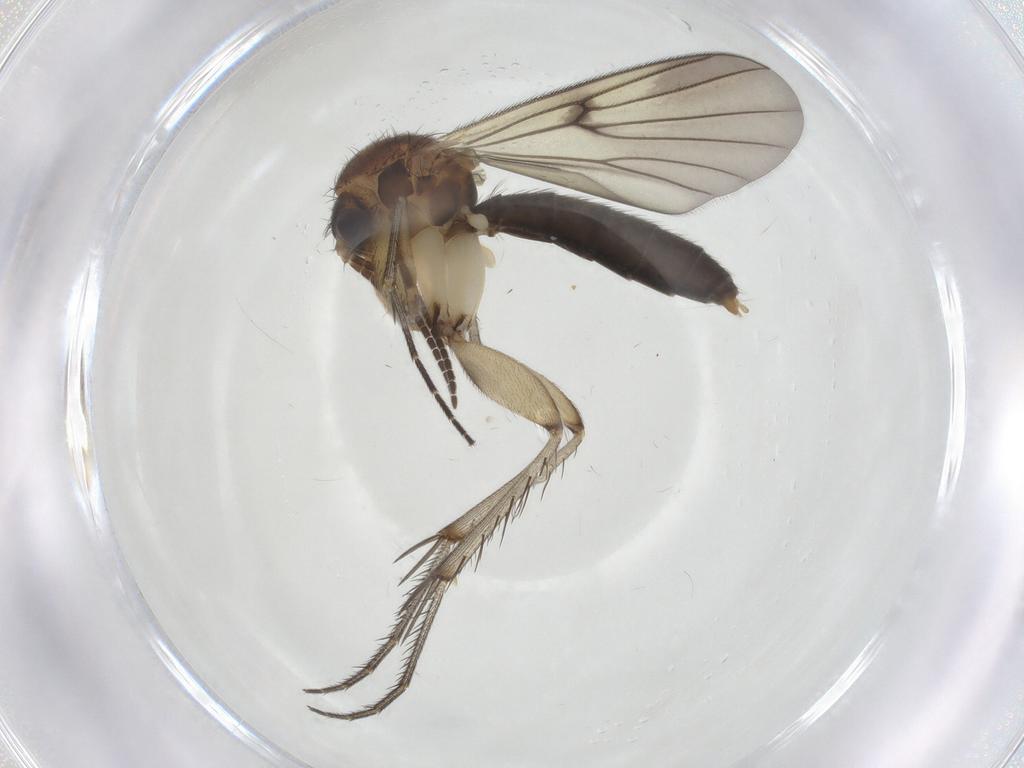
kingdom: Animalia
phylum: Arthropoda
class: Insecta
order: Diptera
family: Mycetophilidae
